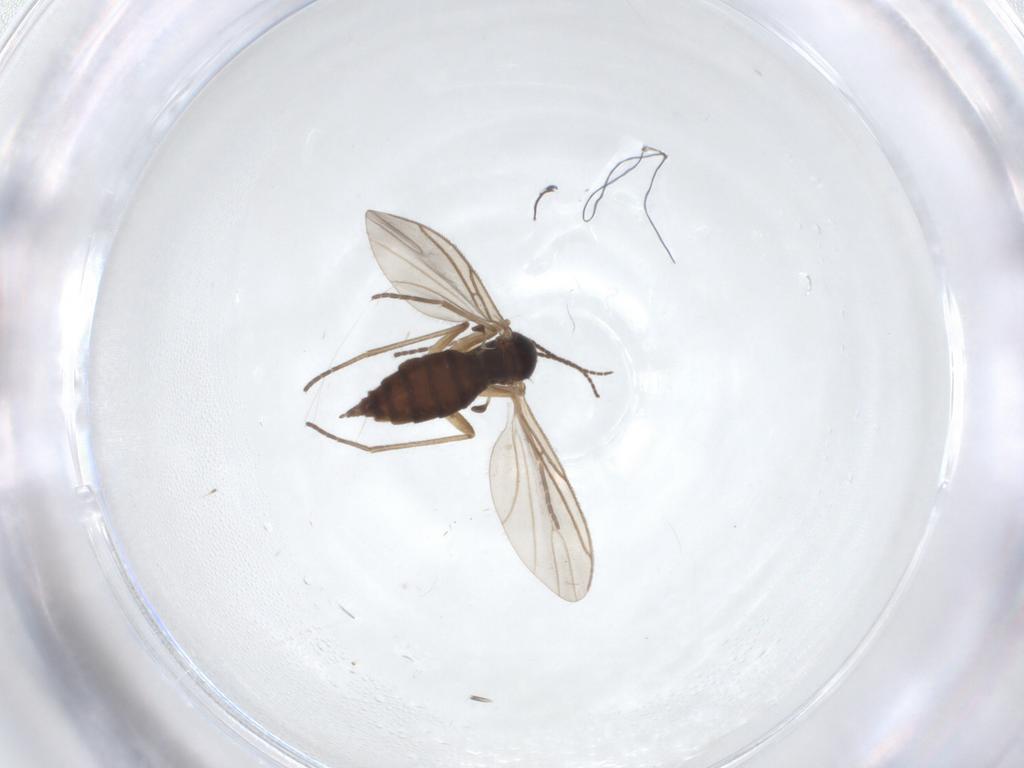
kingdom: Animalia
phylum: Arthropoda
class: Insecta
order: Diptera
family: Sciaridae
